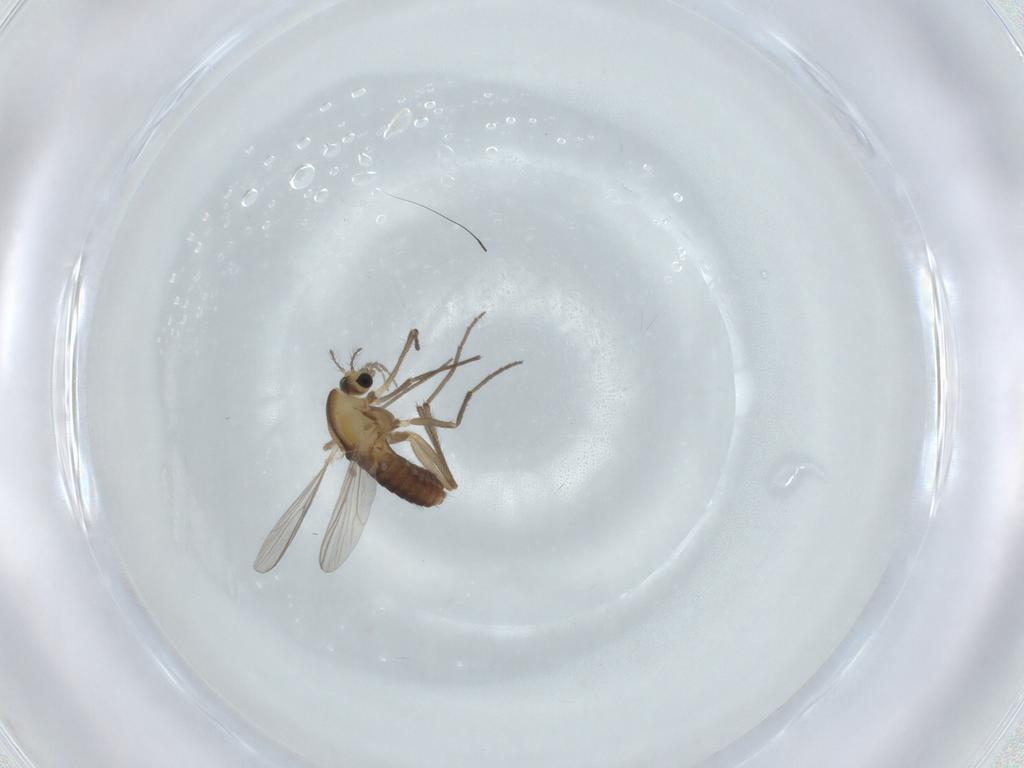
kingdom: Animalia
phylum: Arthropoda
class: Insecta
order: Diptera
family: Chironomidae
